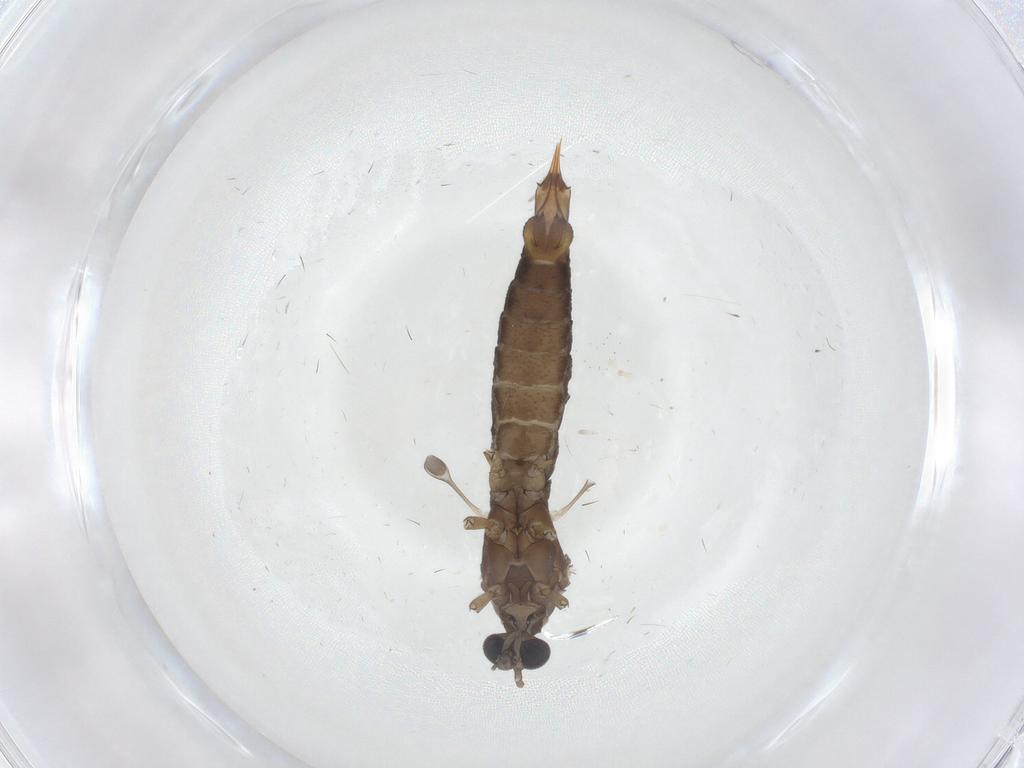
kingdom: Animalia
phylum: Arthropoda
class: Insecta
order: Diptera
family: Limoniidae
